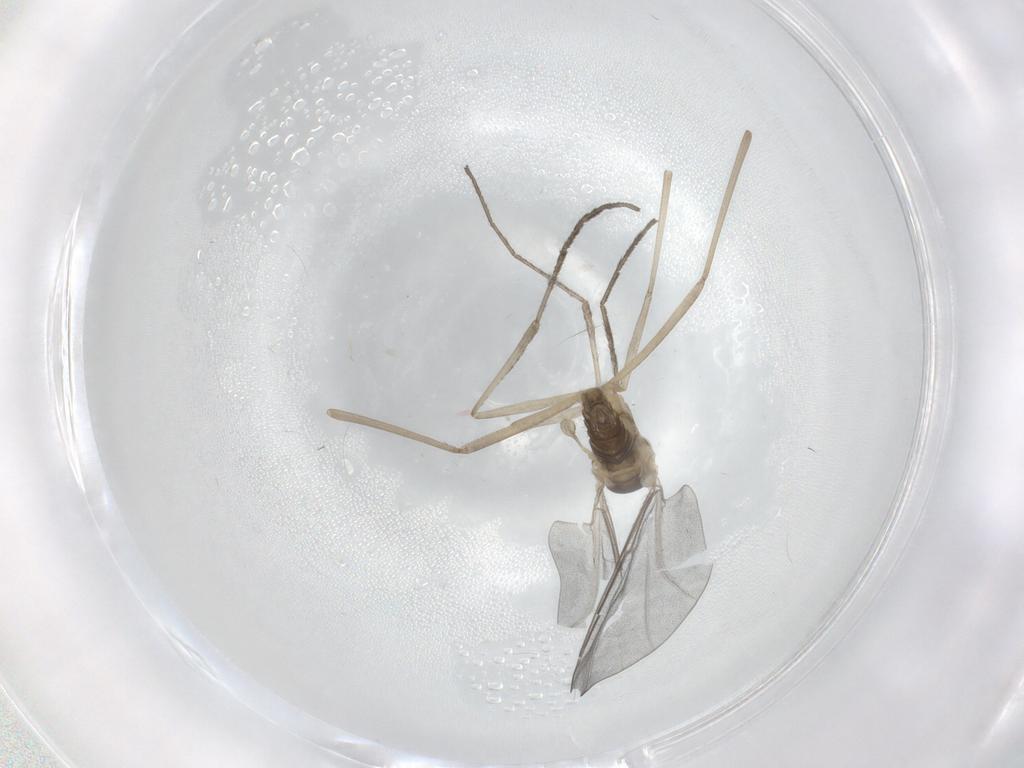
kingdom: Animalia
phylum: Arthropoda
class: Insecta
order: Diptera
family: Cecidomyiidae
